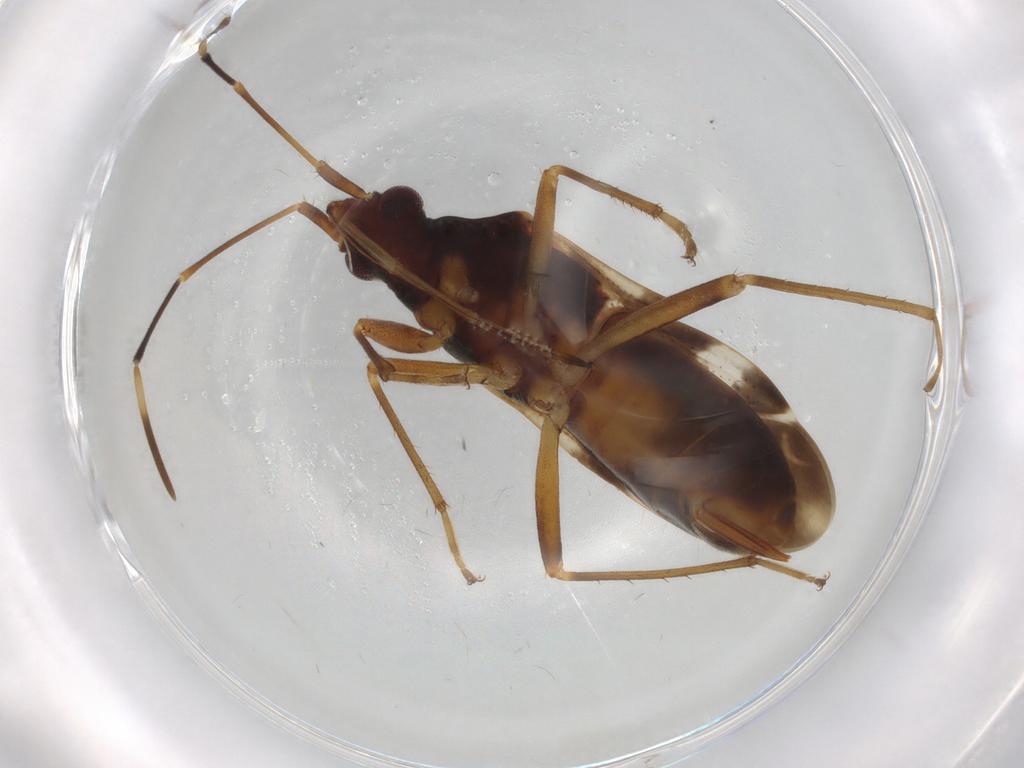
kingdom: Animalia
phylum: Arthropoda
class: Insecta
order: Hemiptera
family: Rhyparochromidae
